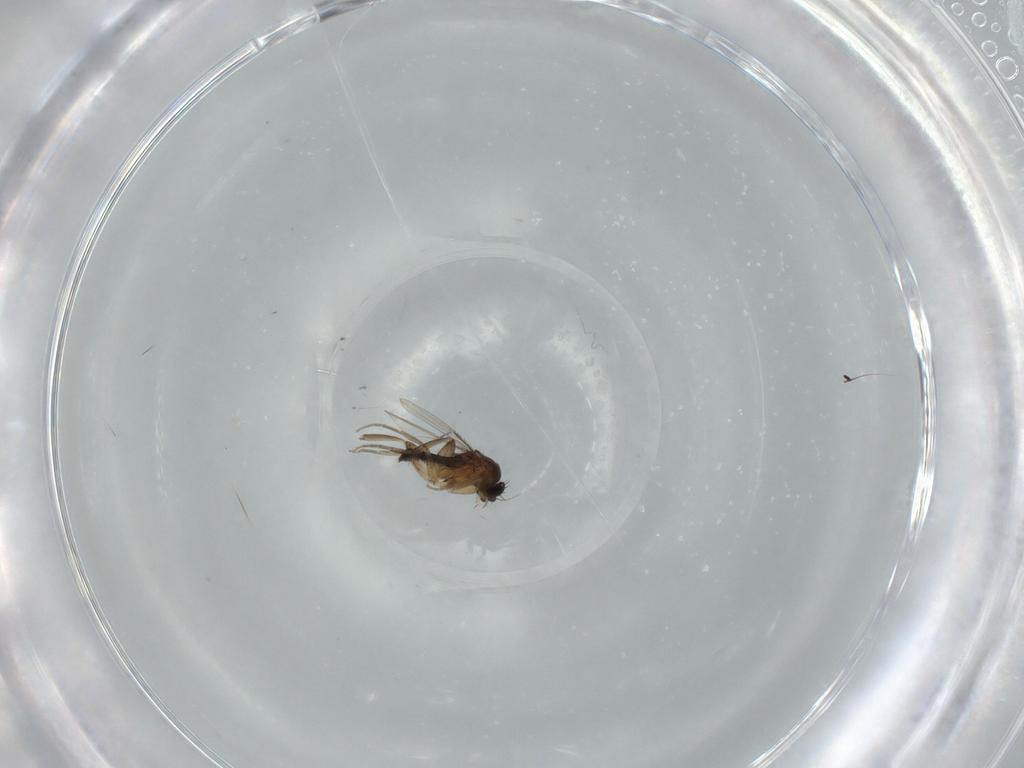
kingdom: Animalia
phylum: Arthropoda
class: Insecta
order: Diptera
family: Phoridae
